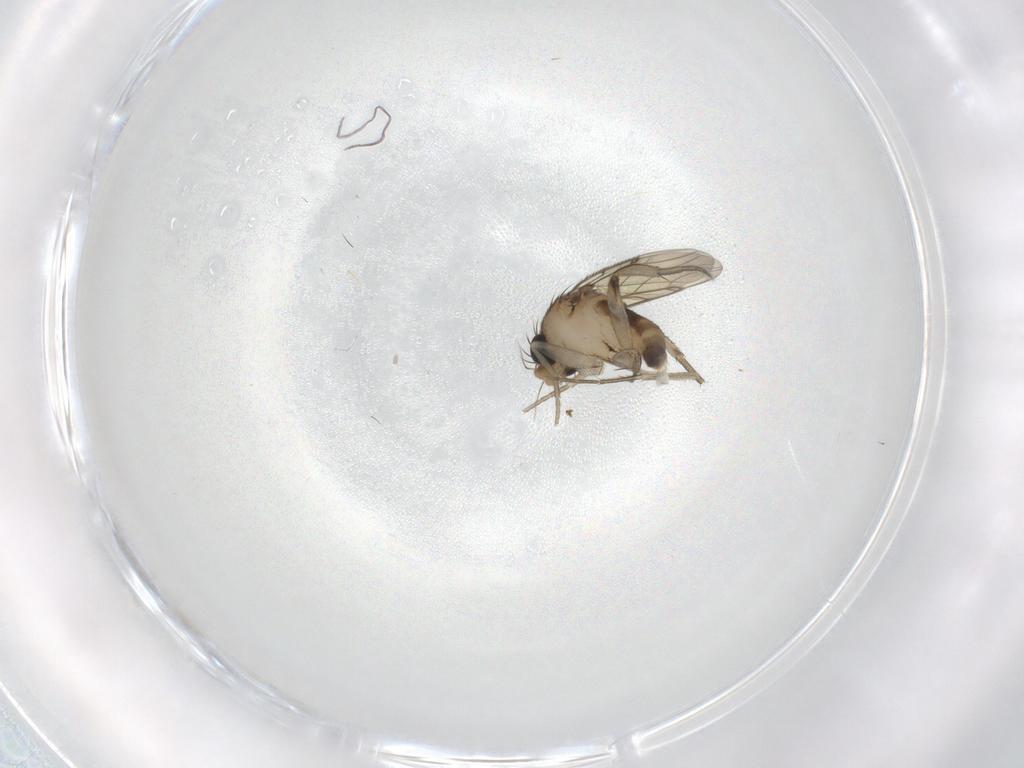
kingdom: Animalia
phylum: Arthropoda
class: Insecta
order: Diptera
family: Phoridae
